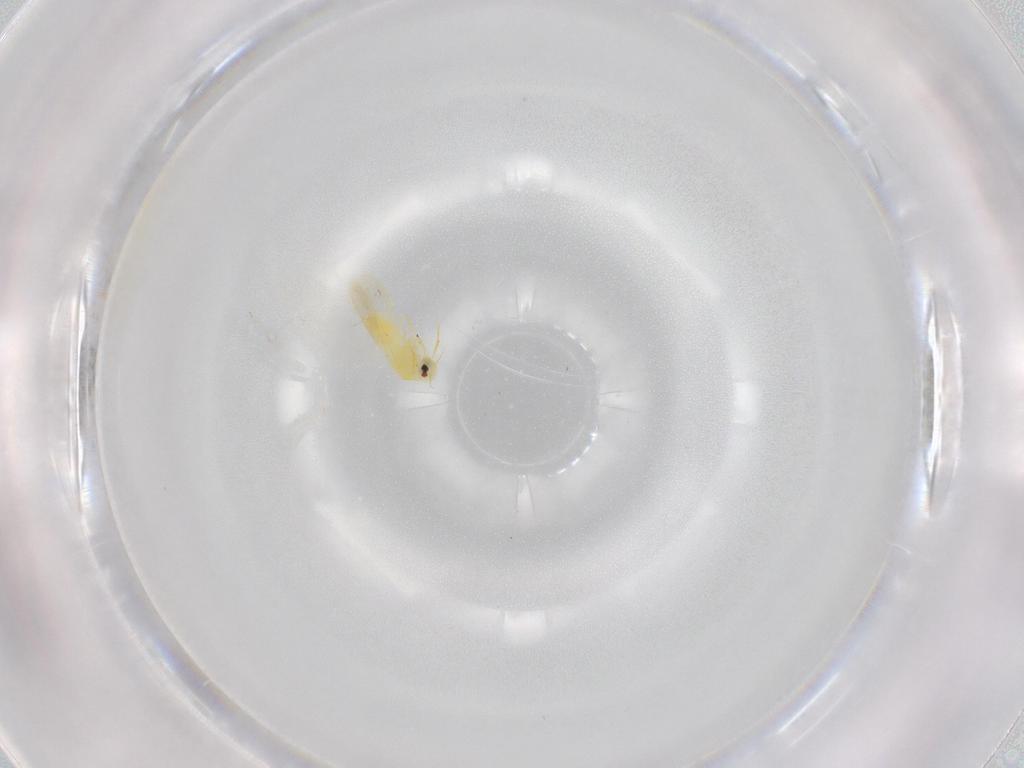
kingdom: Animalia
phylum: Arthropoda
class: Insecta
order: Hemiptera
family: Aleyrodidae
